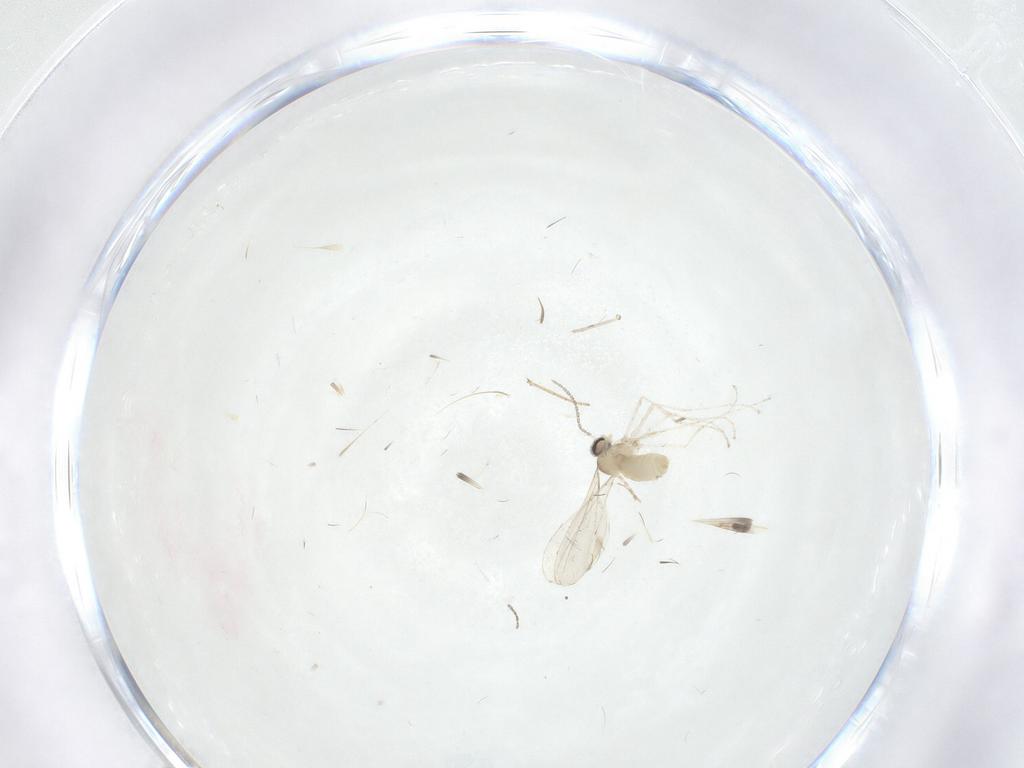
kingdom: Animalia
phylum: Arthropoda
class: Insecta
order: Diptera
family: Cecidomyiidae
